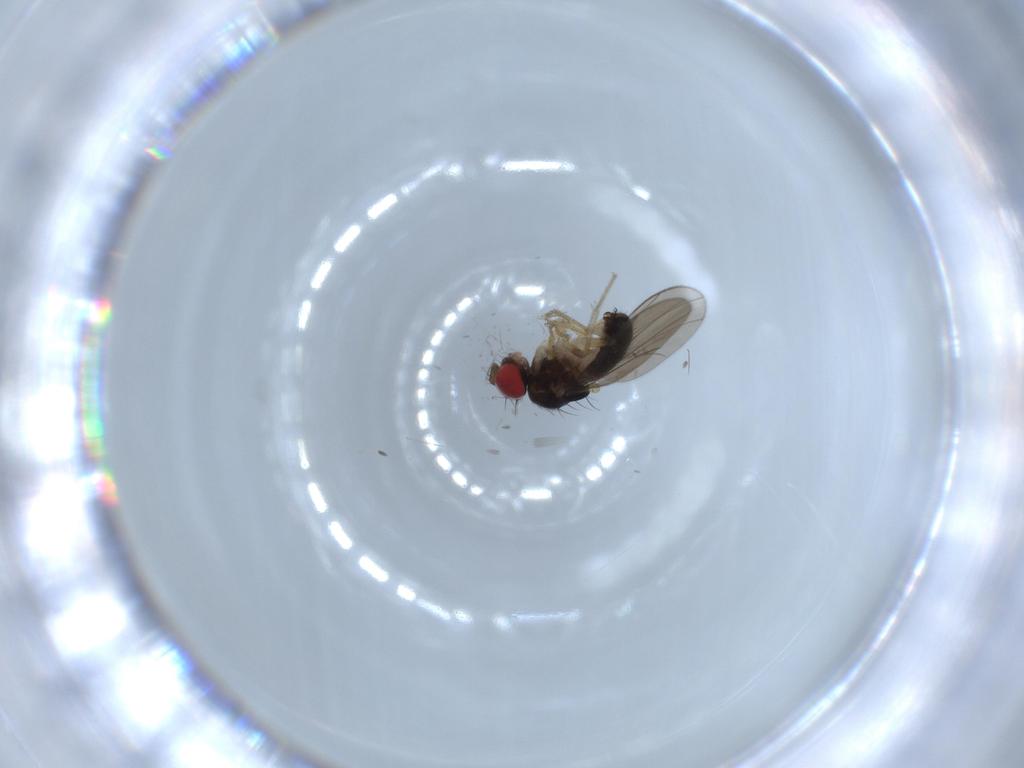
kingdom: Animalia
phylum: Arthropoda
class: Insecta
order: Diptera
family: Drosophilidae
